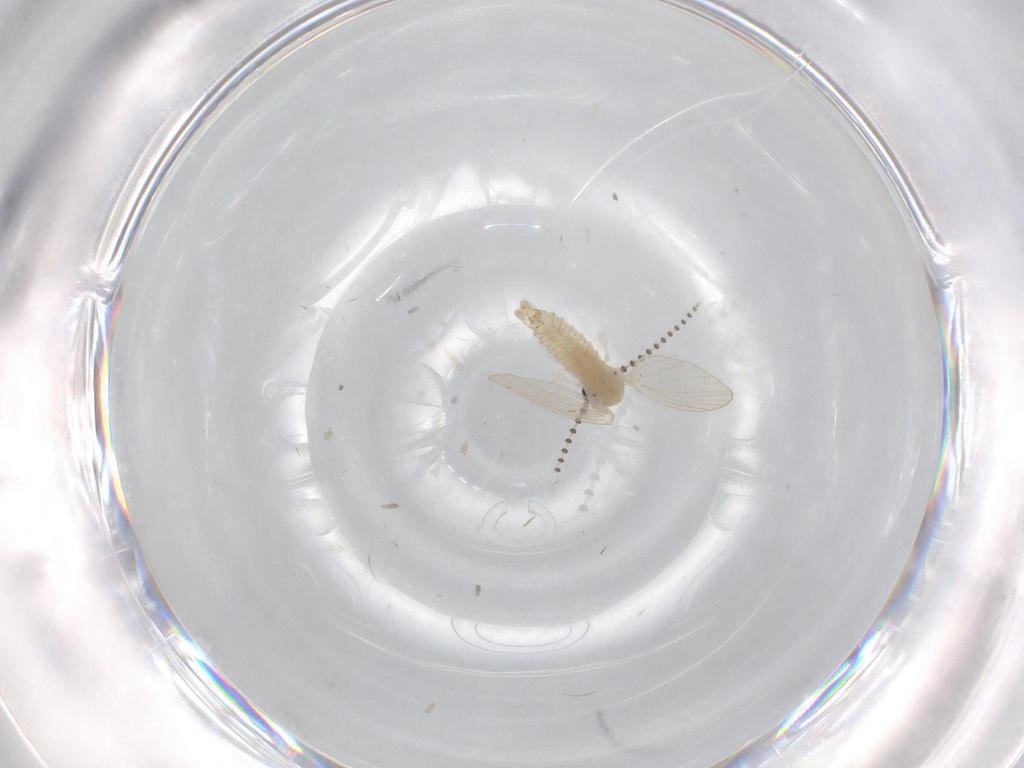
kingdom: Animalia
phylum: Arthropoda
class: Insecta
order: Diptera
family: Psychodidae
